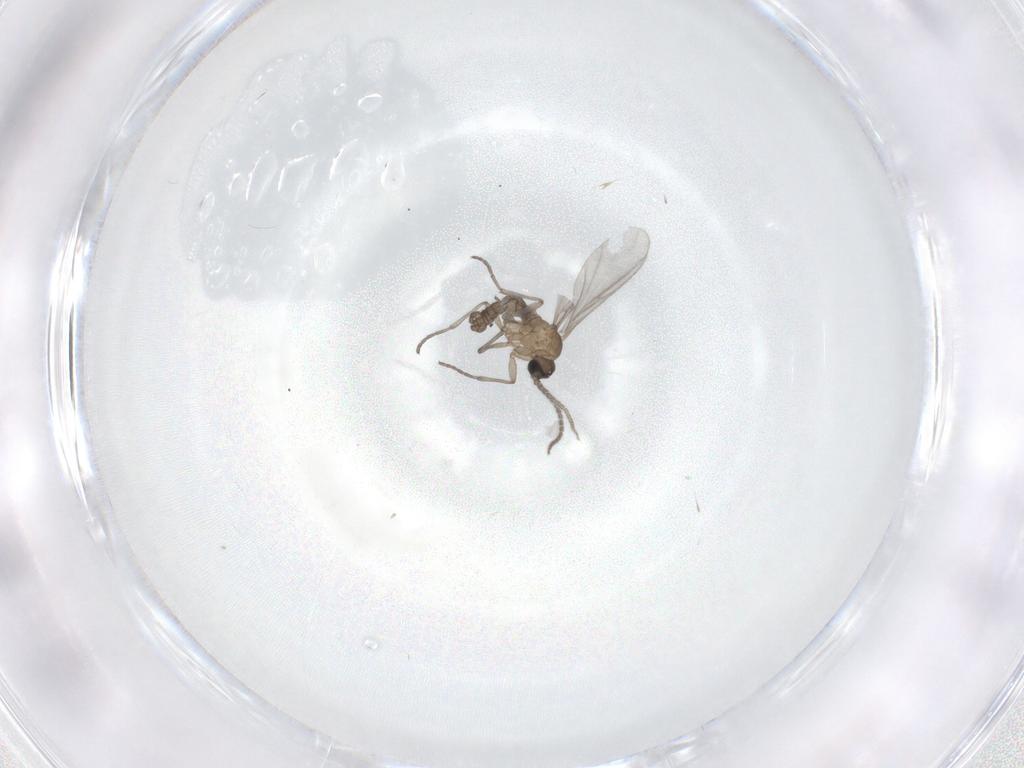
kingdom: Animalia
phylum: Arthropoda
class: Insecta
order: Diptera
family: Sciaridae
